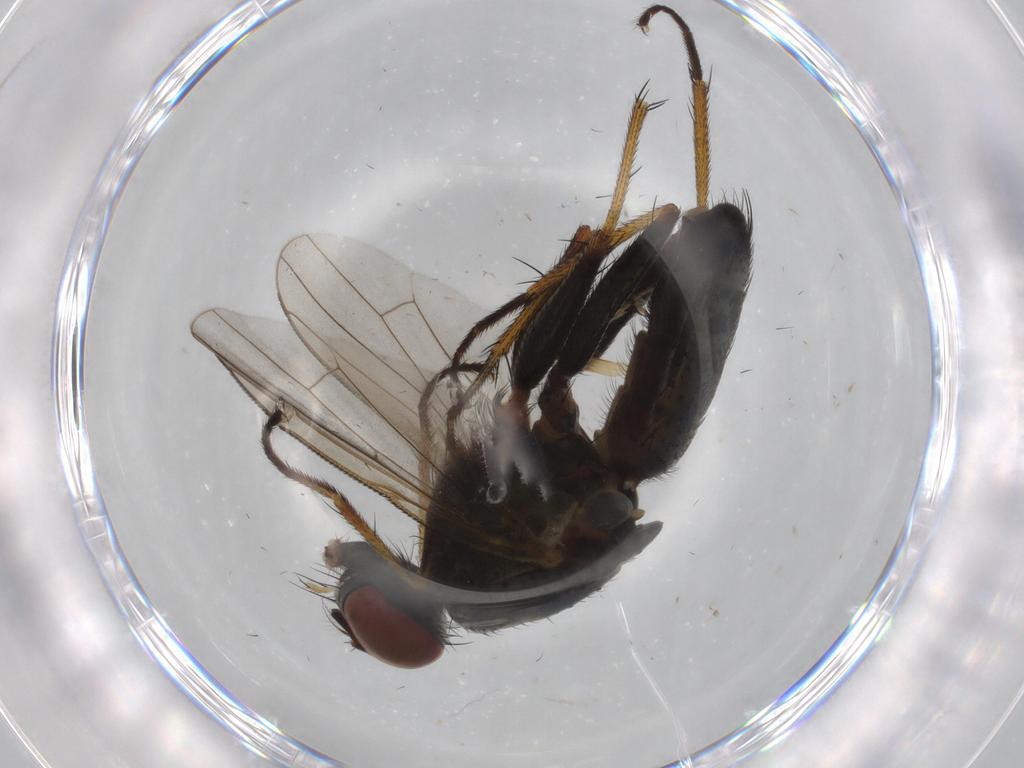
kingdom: Animalia
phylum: Arthropoda
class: Insecta
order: Diptera
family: Muscidae
